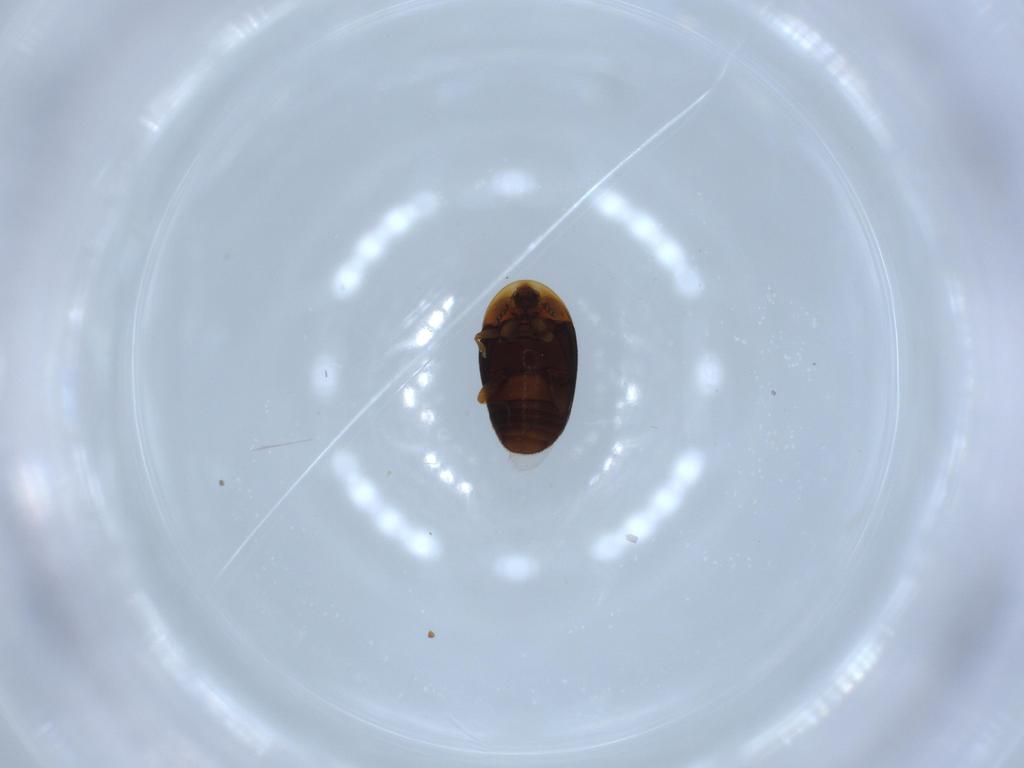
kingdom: Animalia
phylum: Arthropoda
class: Insecta
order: Coleoptera
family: Corylophidae
